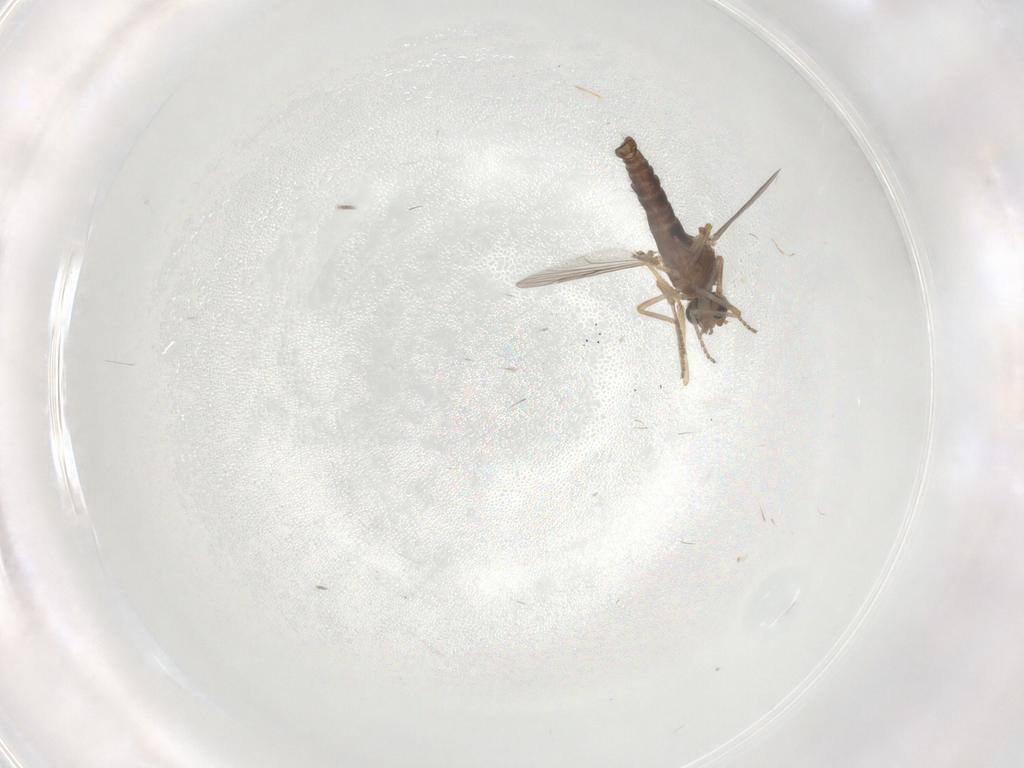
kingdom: Animalia
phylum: Arthropoda
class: Insecta
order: Diptera
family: Ceratopogonidae
